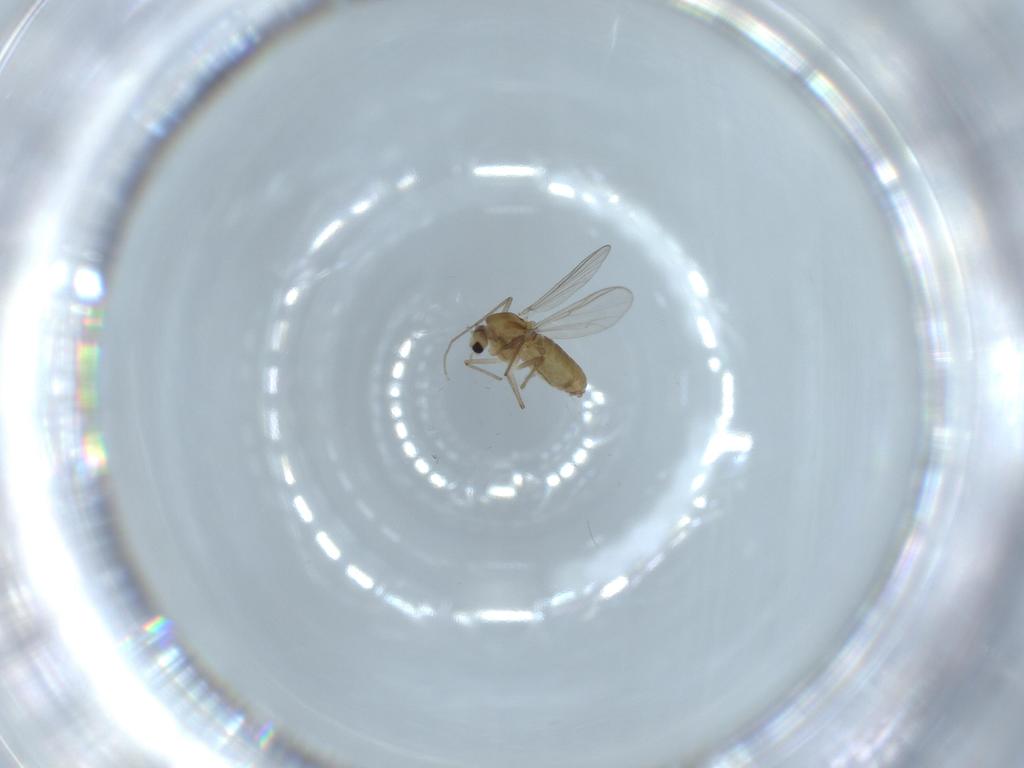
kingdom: Animalia
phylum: Arthropoda
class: Insecta
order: Diptera
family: Chironomidae
